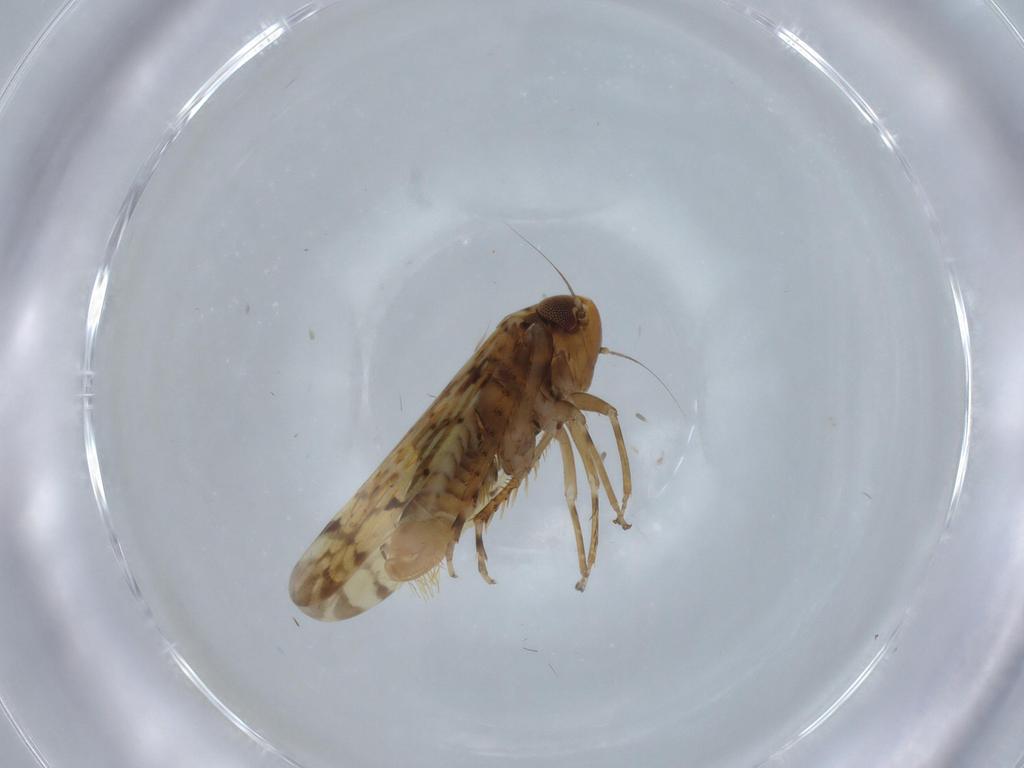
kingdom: Animalia
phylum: Arthropoda
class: Insecta
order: Hemiptera
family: Cicadellidae
